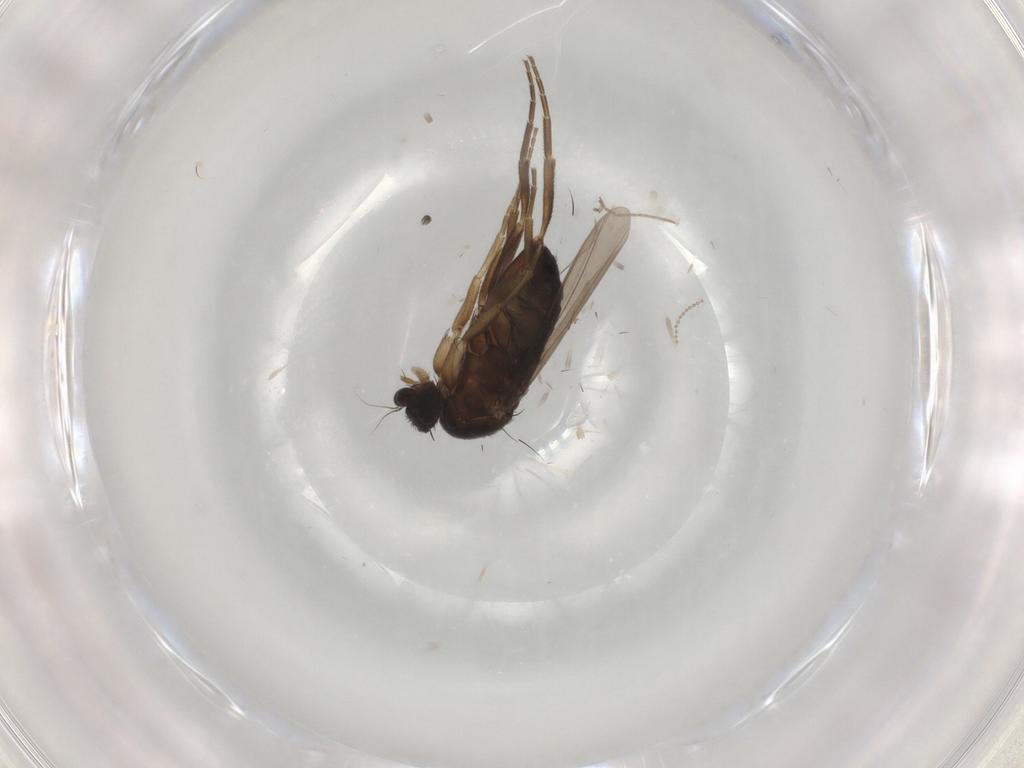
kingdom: Animalia
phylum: Arthropoda
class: Insecta
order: Diptera
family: Phoridae
